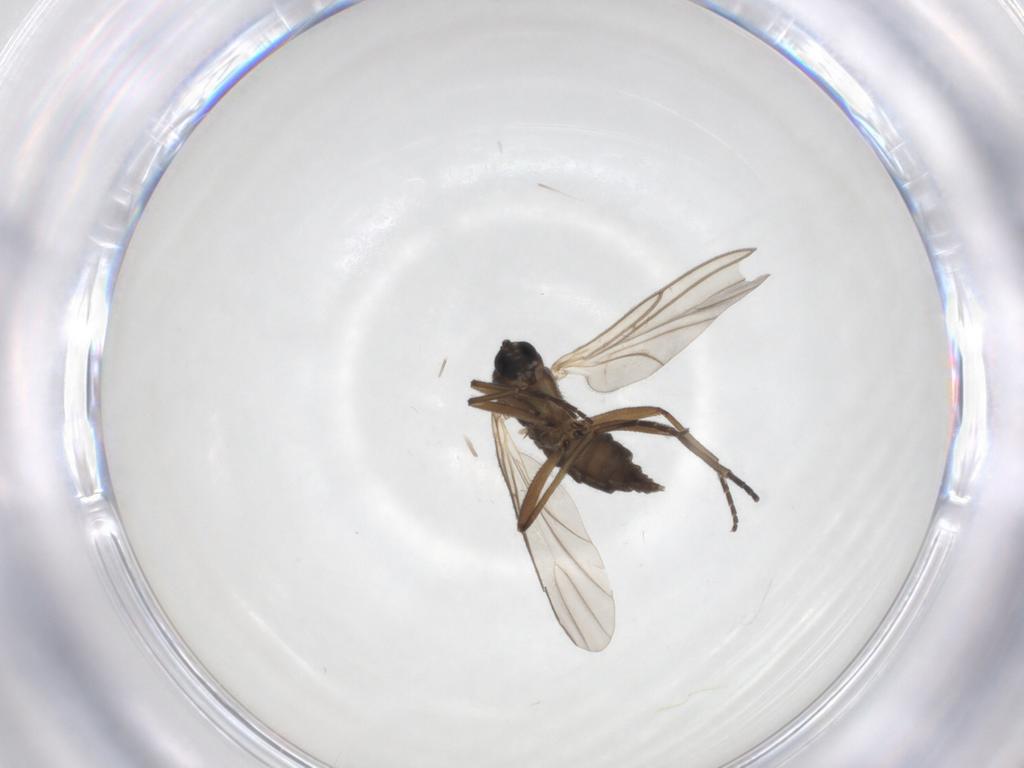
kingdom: Animalia
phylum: Arthropoda
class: Insecta
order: Diptera
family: Platypezidae
